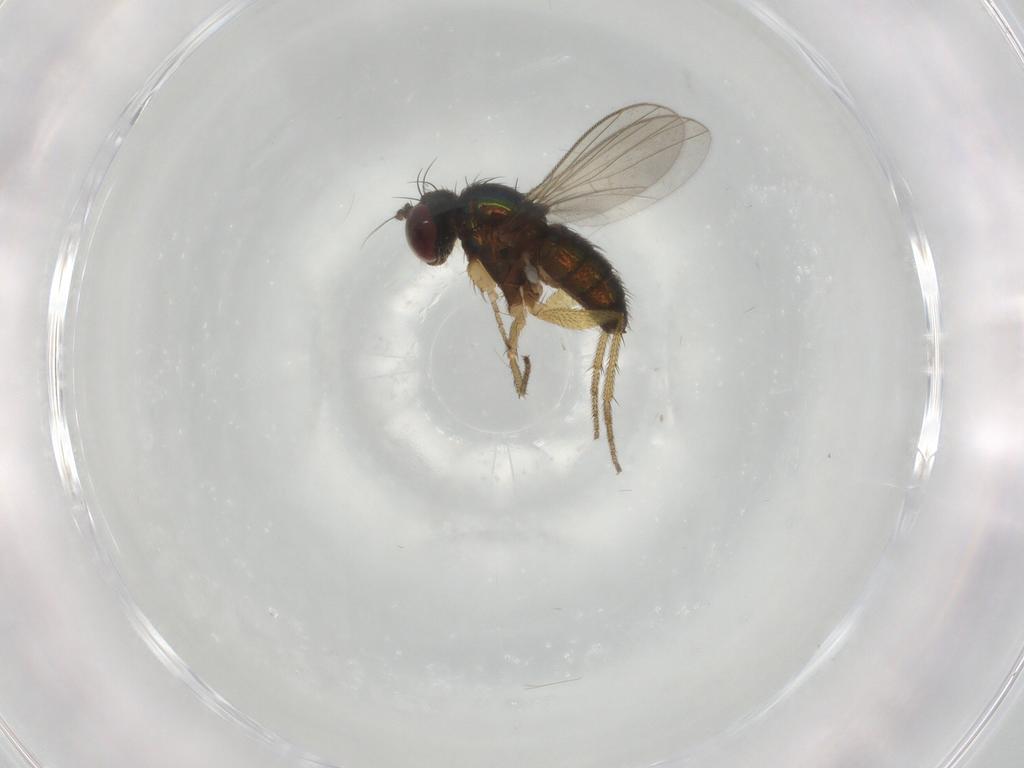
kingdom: Animalia
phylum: Arthropoda
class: Insecta
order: Diptera
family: Dolichopodidae
